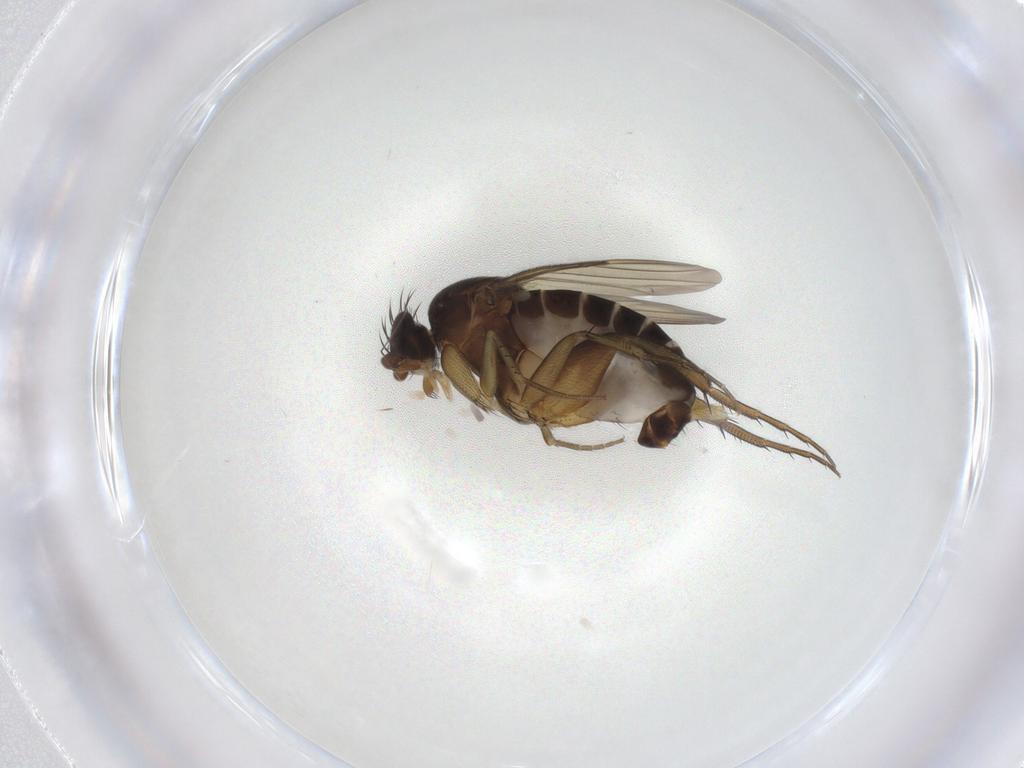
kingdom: Animalia
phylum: Arthropoda
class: Insecta
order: Diptera
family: Phoridae
